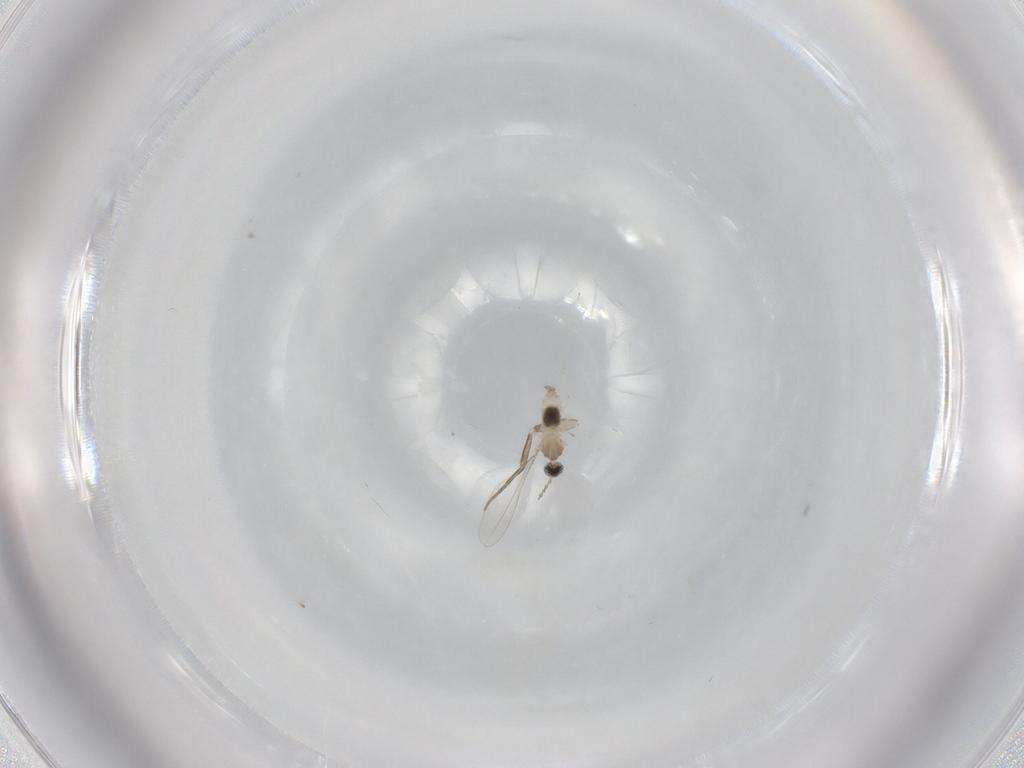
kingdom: Animalia
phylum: Arthropoda
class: Insecta
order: Diptera
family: Cecidomyiidae
